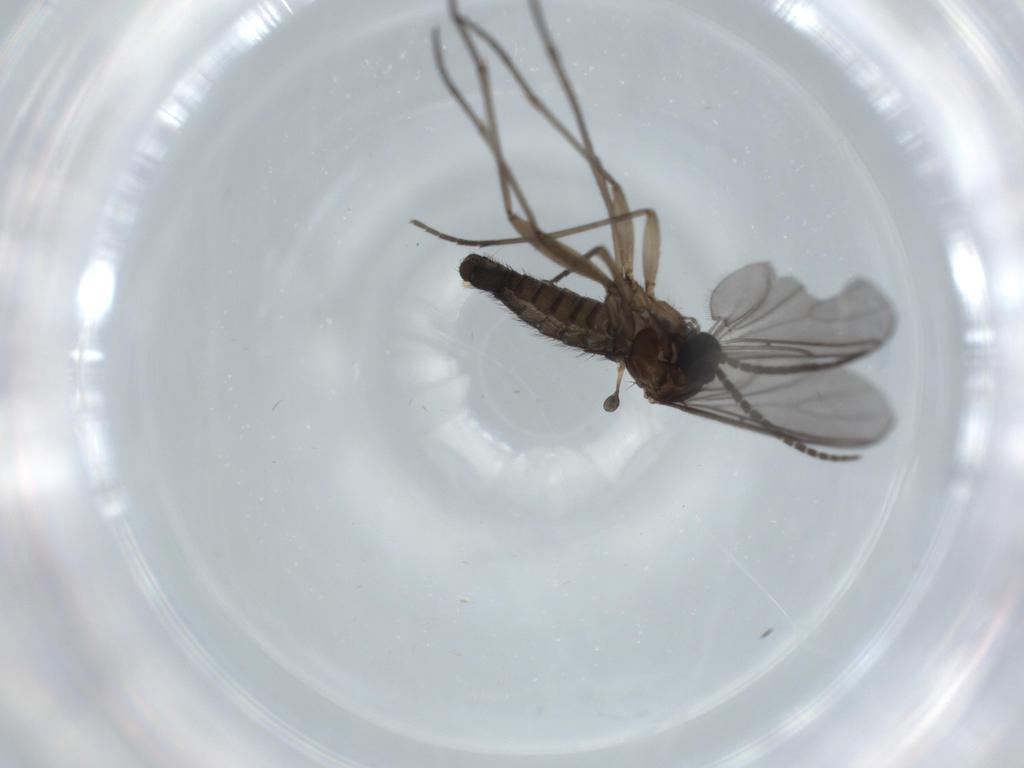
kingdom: Animalia
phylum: Arthropoda
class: Insecta
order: Diptera
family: Sciaridae
